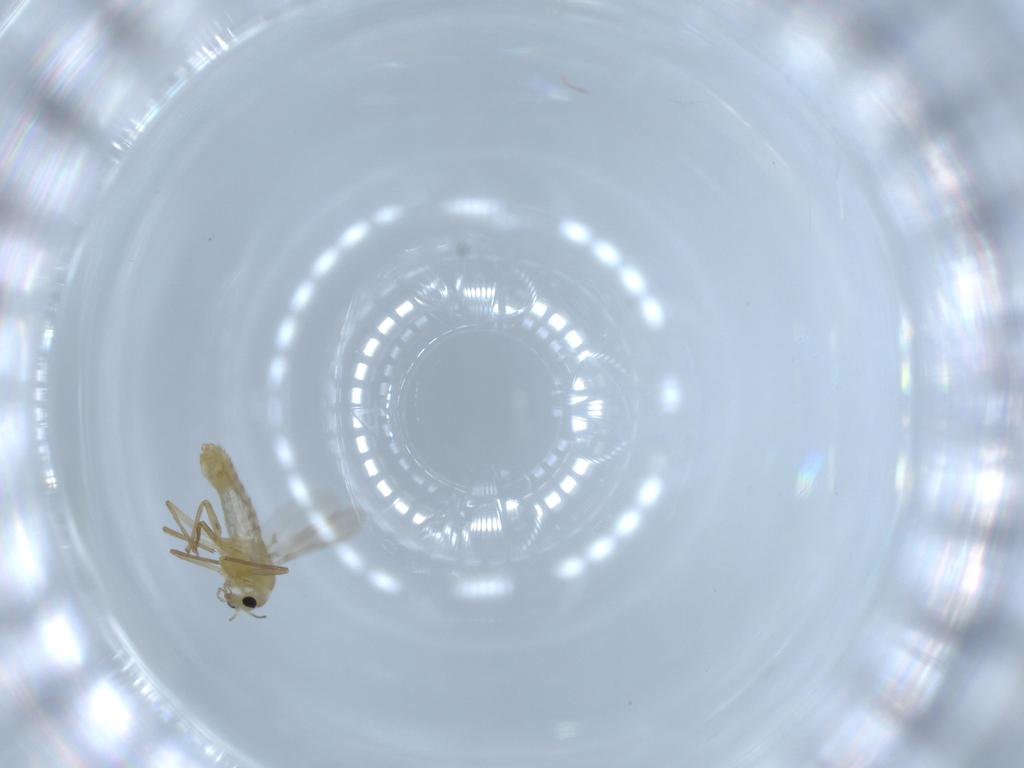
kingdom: Animalia
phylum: Arthropoda
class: Insecta
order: Diptera
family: Chironomidae
